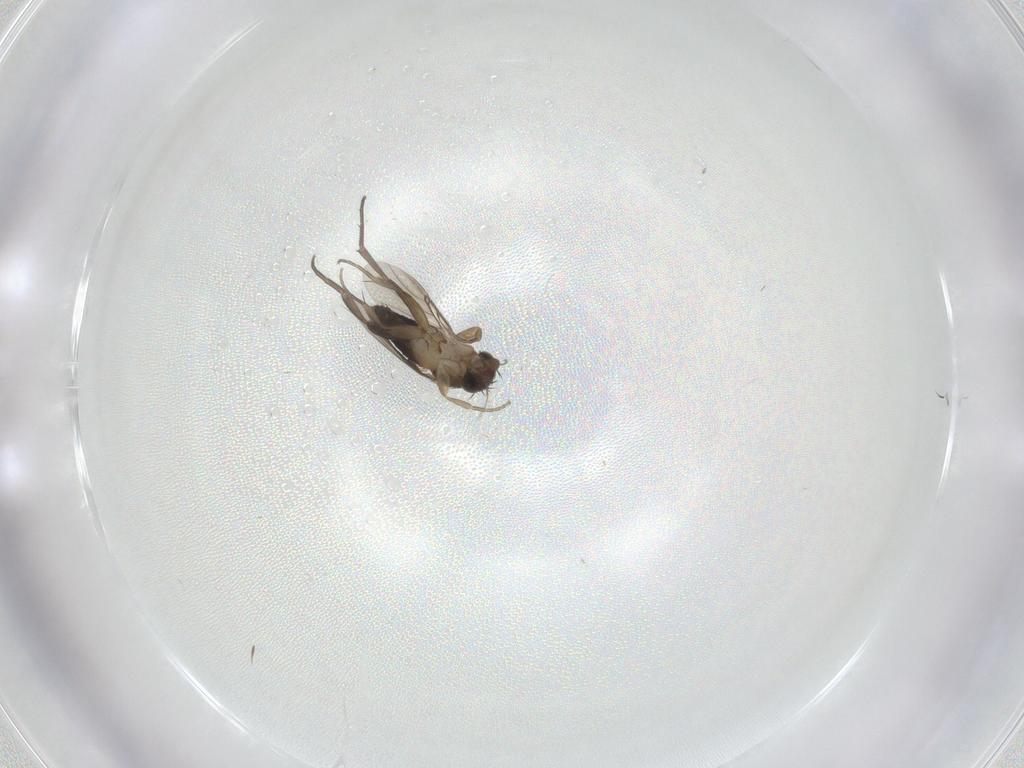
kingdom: Animalia
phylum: Arthropoda
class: Insecta
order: Diptera
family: Phoridae
